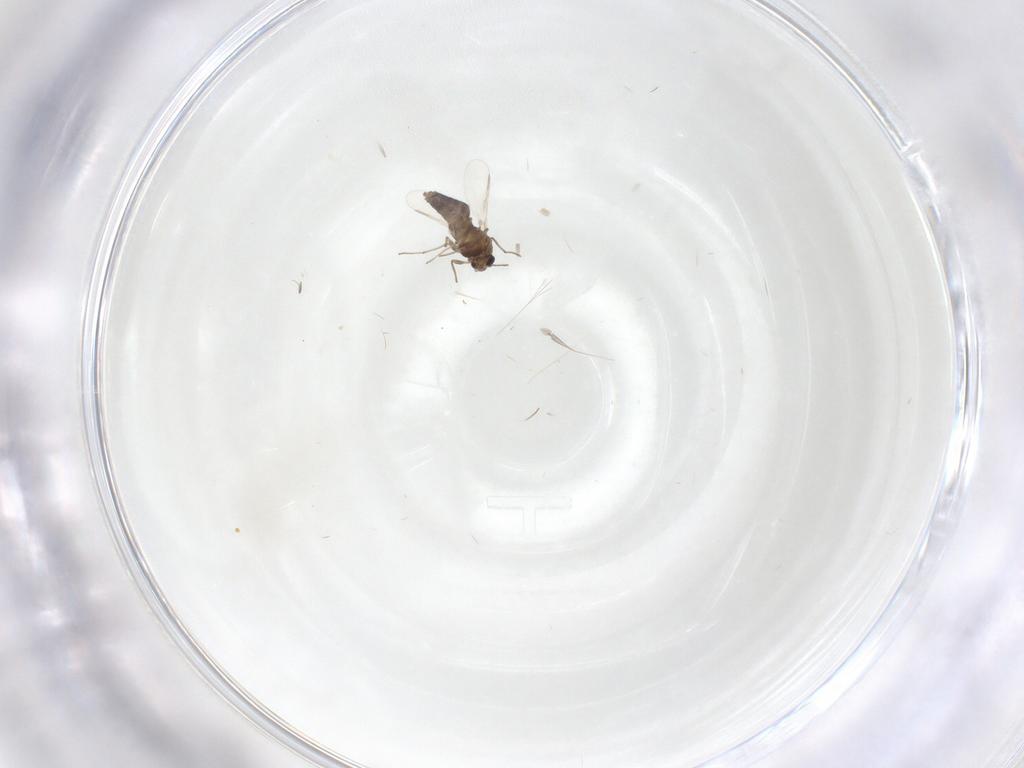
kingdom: Animalia
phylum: Arthropoda
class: Insecta
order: Diptera
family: Chironomidae
